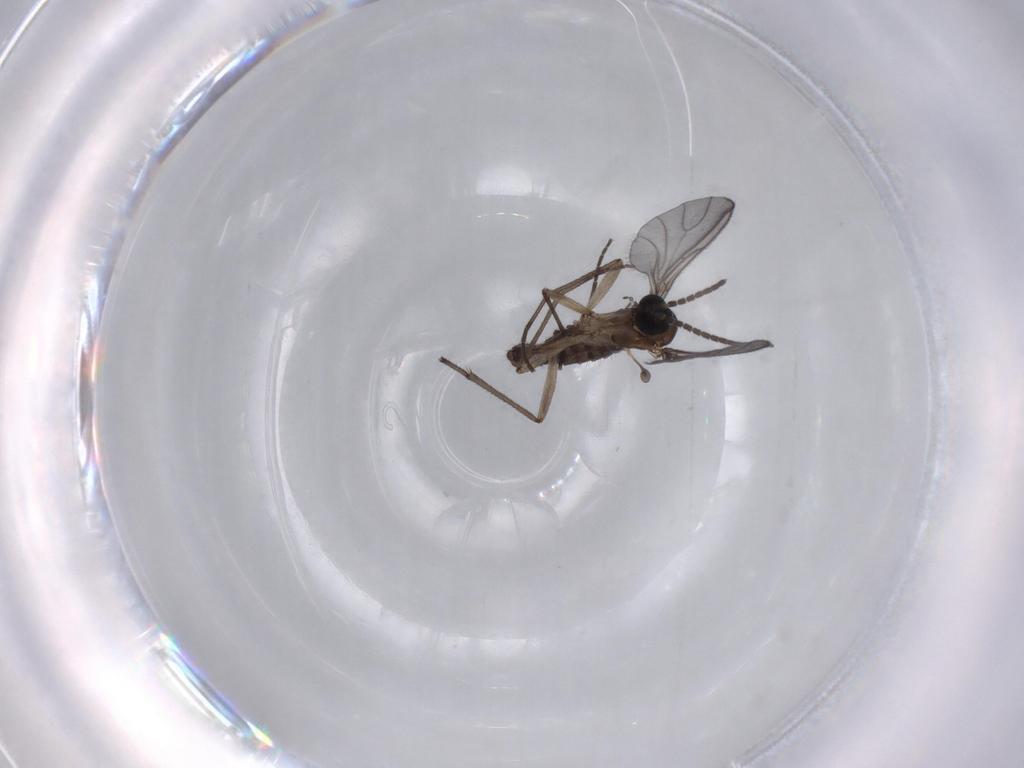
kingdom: Animalia
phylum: Arthropoda
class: Insecta
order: Diptera
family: Sciaridae
